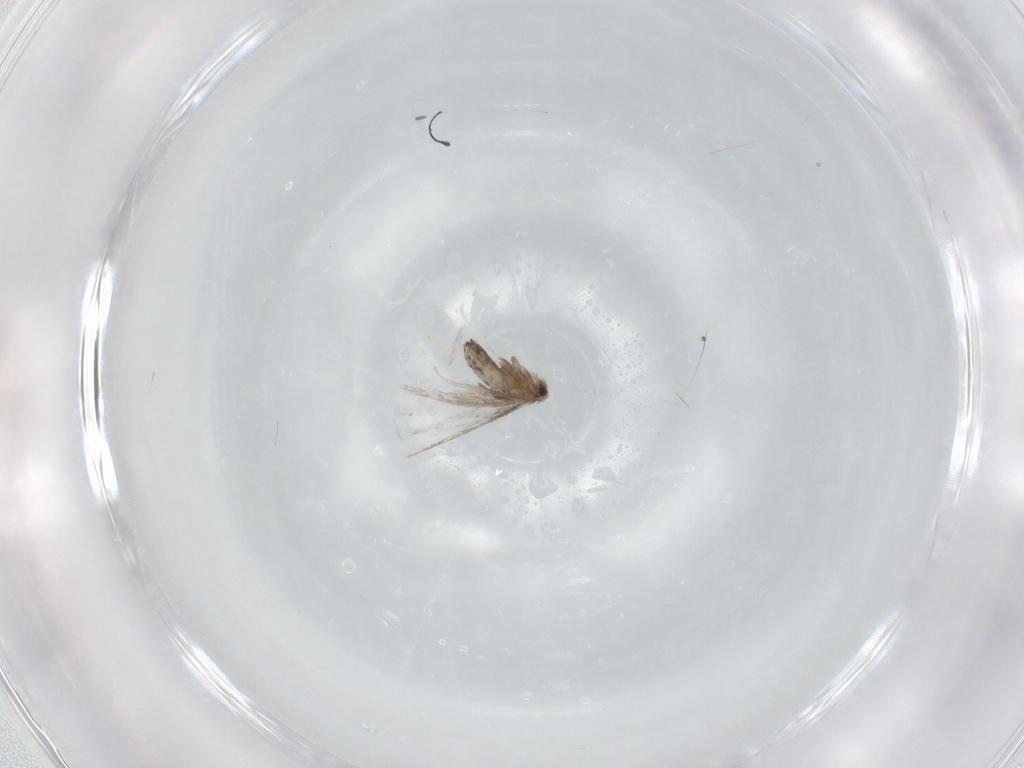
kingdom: Animalia
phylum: Arthropoda
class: Insecta
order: Lepidoptera
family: Nepticulidae
